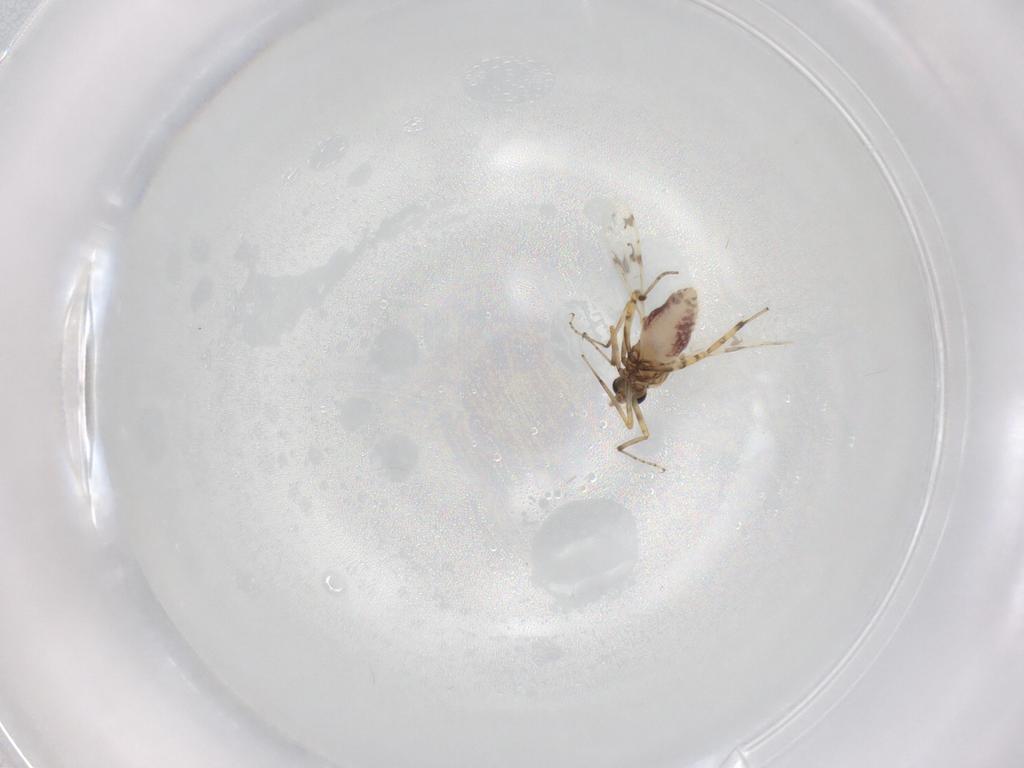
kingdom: Animalia
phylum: Arthropoda
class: Insecta
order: Diptera
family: Ceratopogonidae
